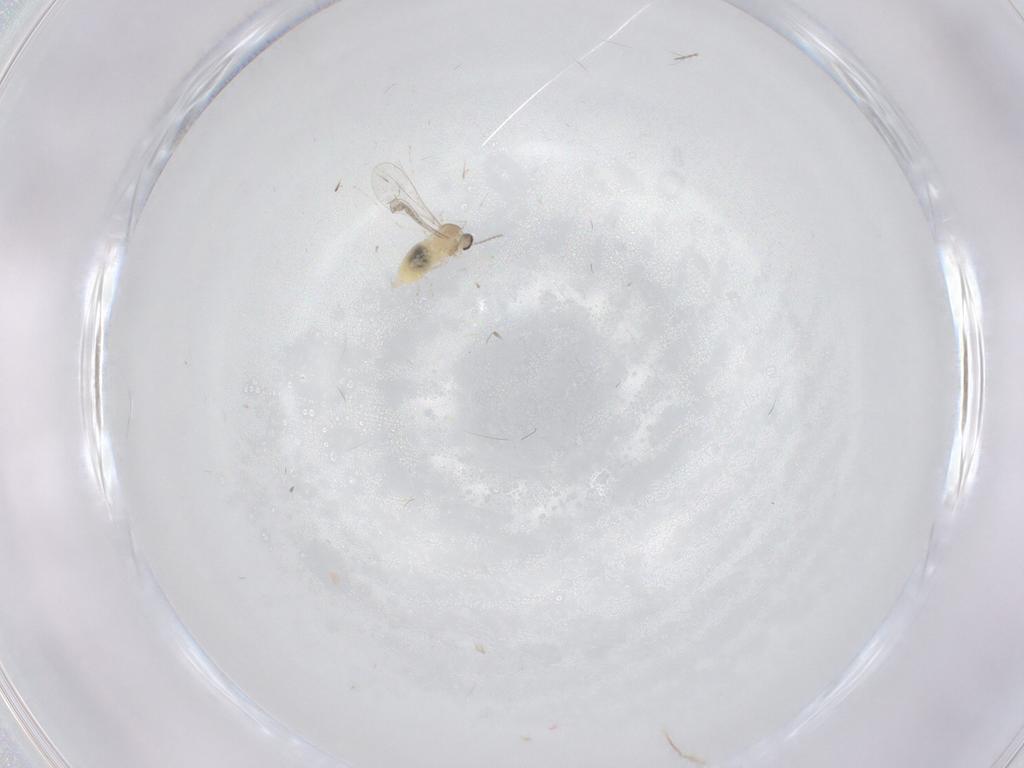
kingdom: Animalia
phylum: Arthropoda
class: Insecta
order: Diptera
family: Cecidomyiidae
